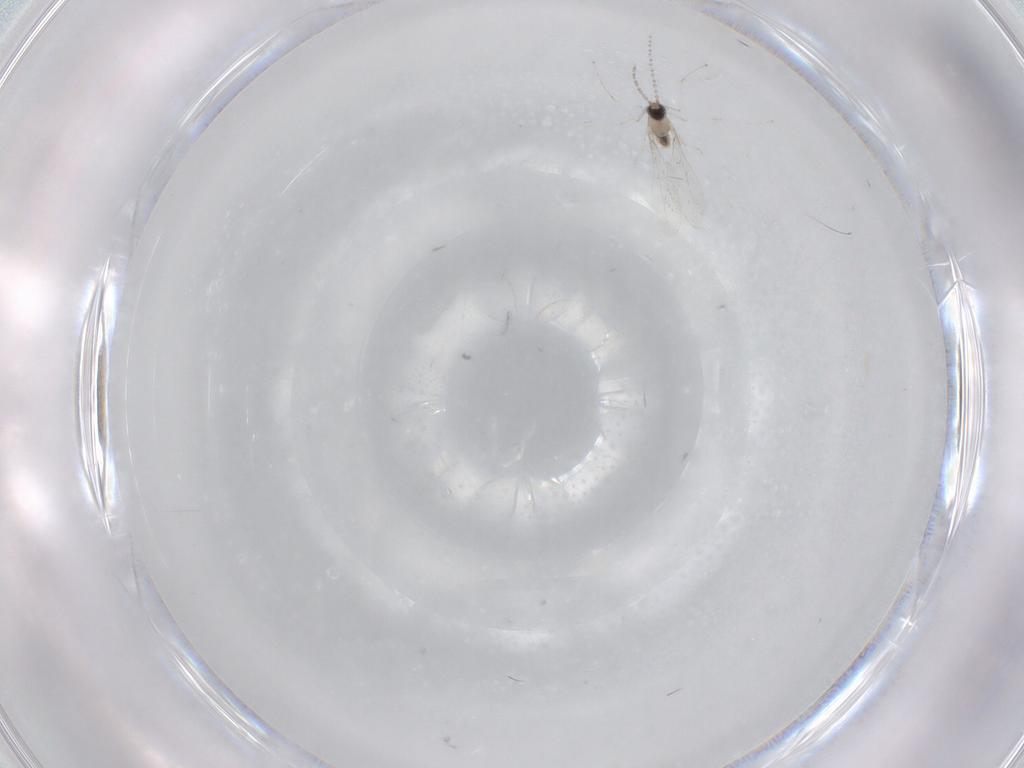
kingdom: Animalia
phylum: Arthropoda
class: Insecta
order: Diptera
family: Cecidomyiidae
